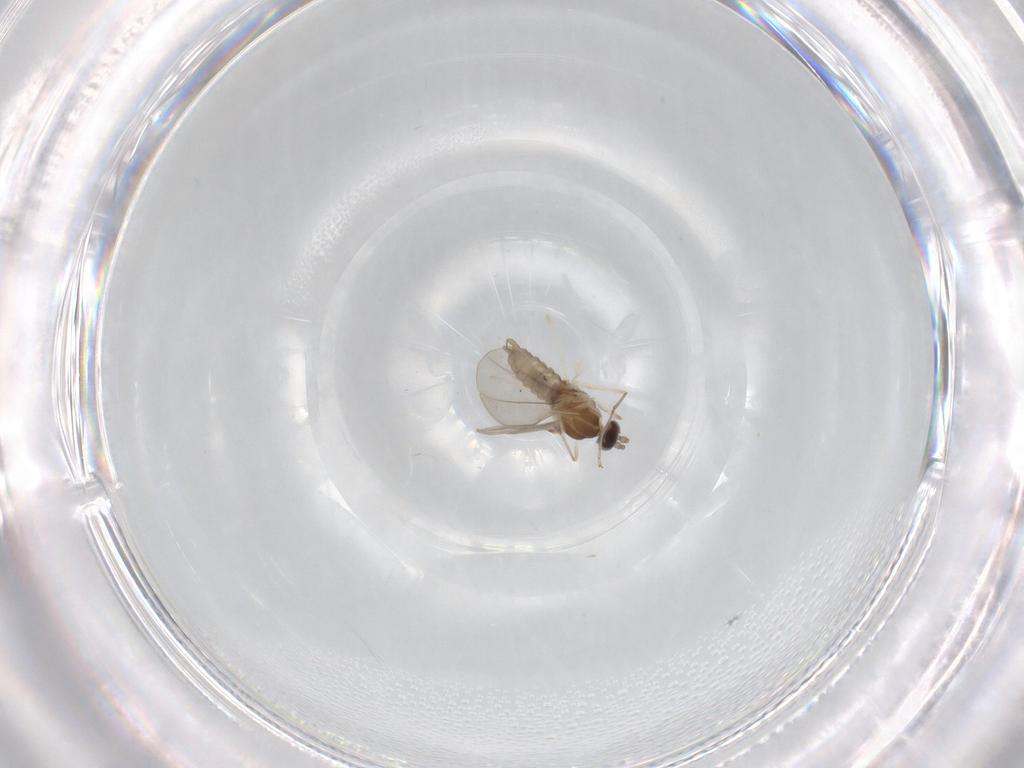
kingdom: Animalia
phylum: Arthropoda
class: Insecta
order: Diptera
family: Cecidomyiidae
